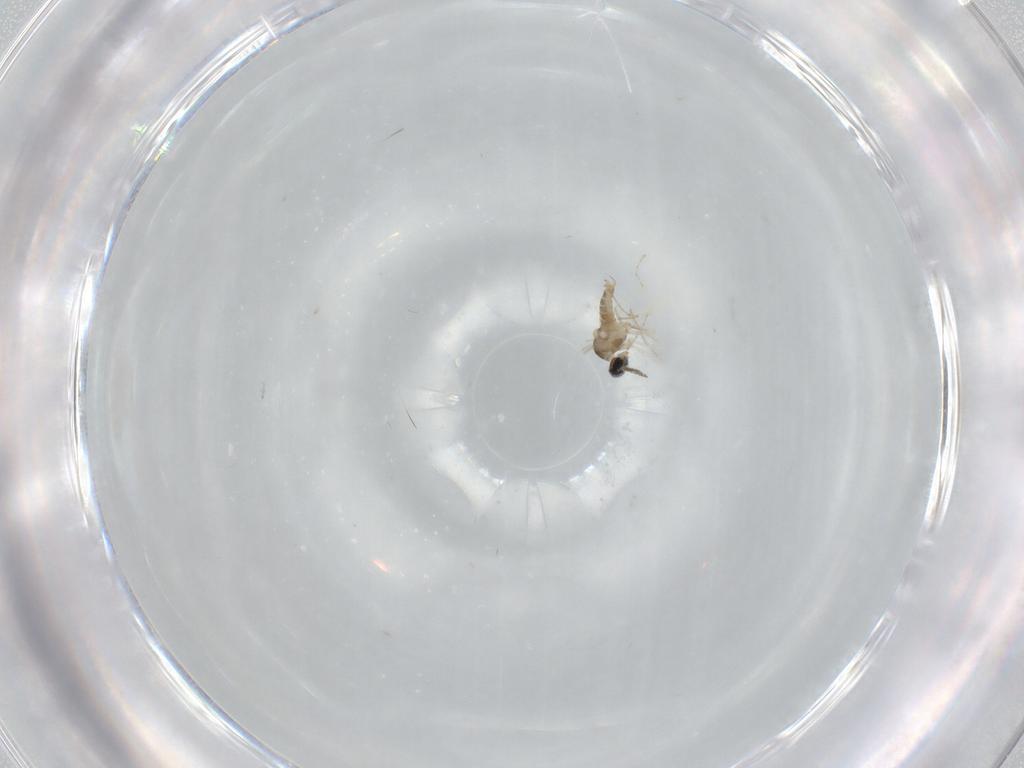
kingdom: Animalia
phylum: Arthropoda
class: Insecta
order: Diptera
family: Cecidomyiidae
